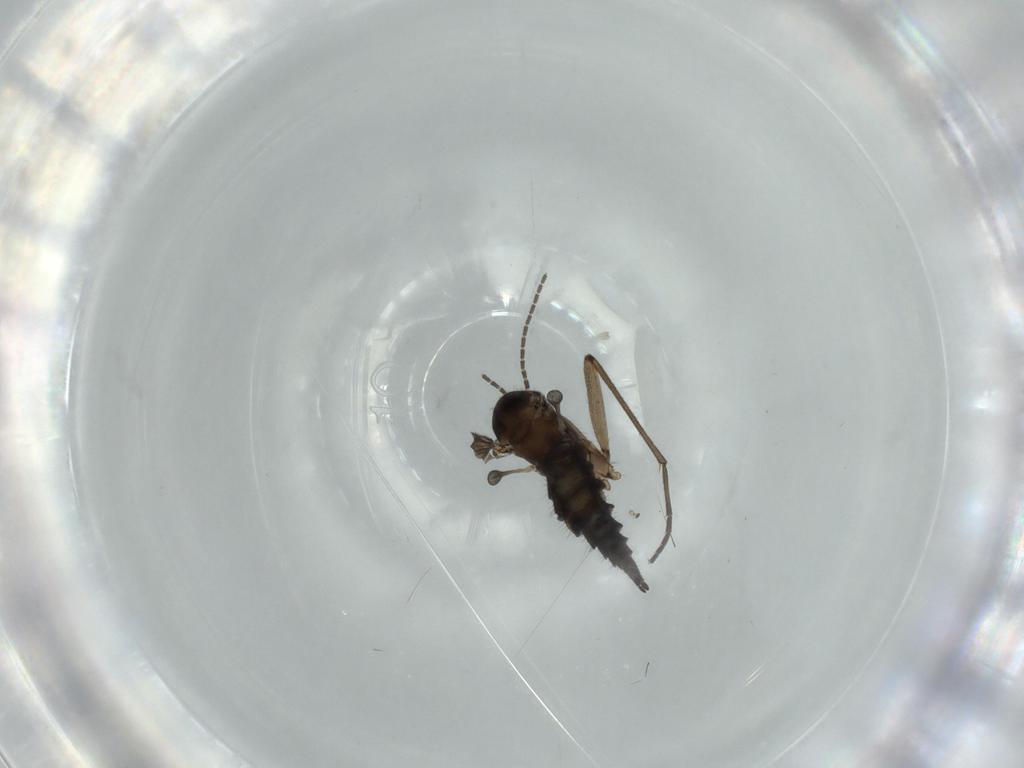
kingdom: Animalia
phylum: Arthropoda
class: Insecta
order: Diptera
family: Sciaridae
